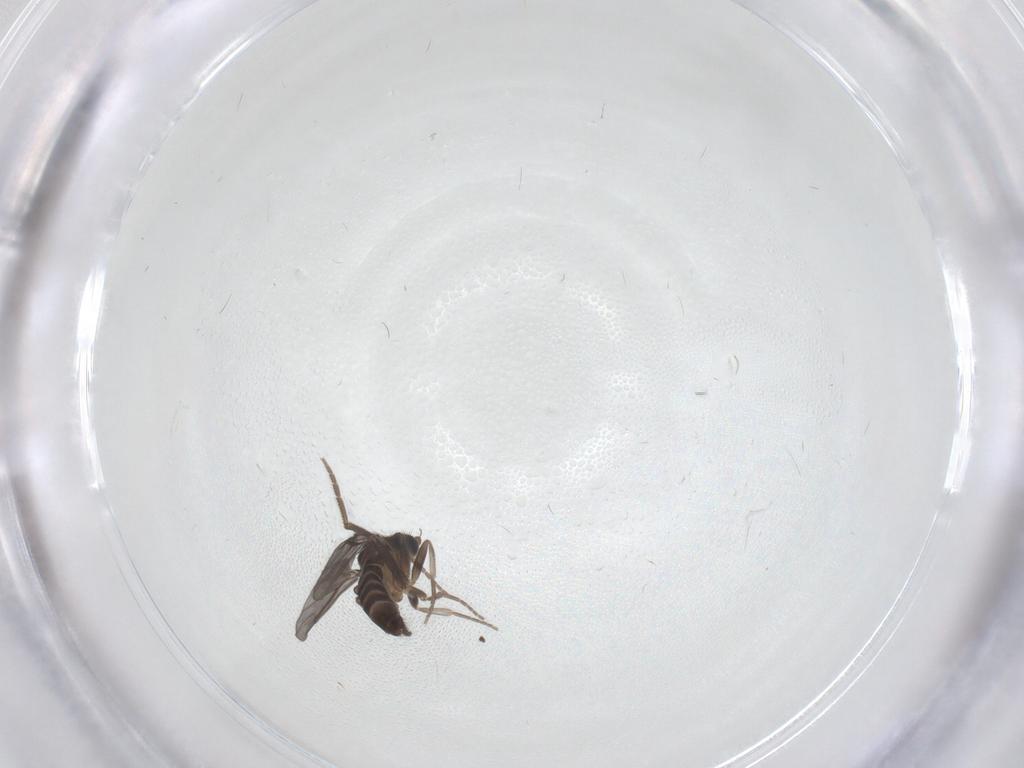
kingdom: Animalia
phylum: Arthropoda
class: Insecta
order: Diptera
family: Phoridae
